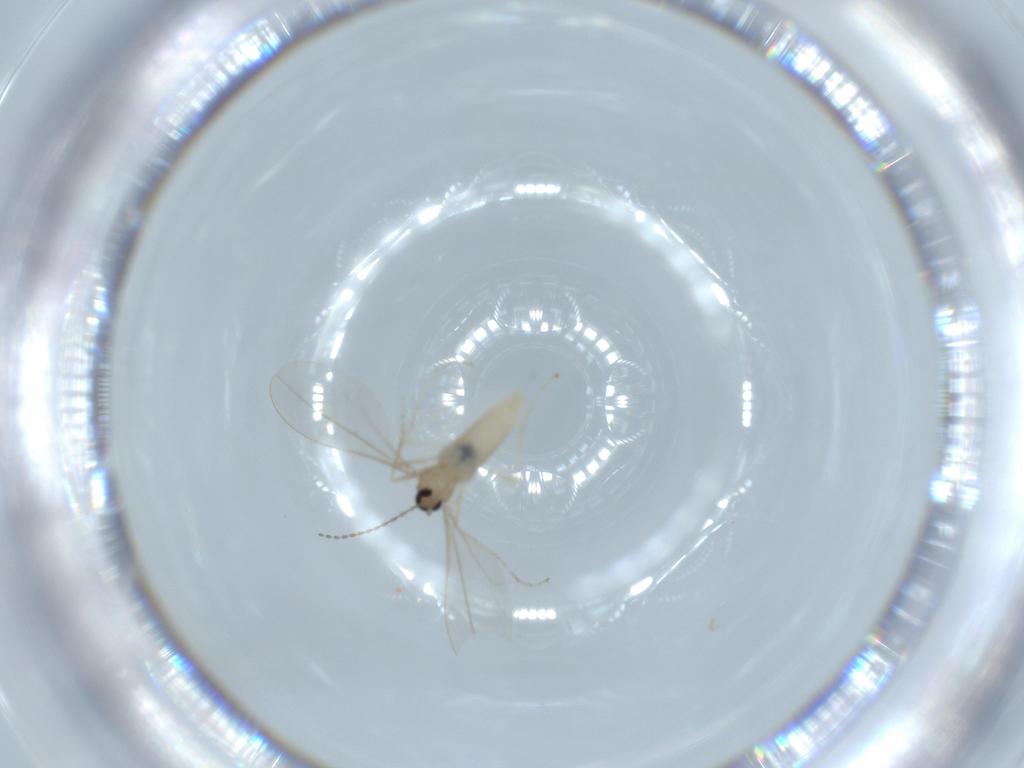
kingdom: Animalia
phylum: Arthropoda
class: Insecta
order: Diptera
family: Cecidomyiidae
